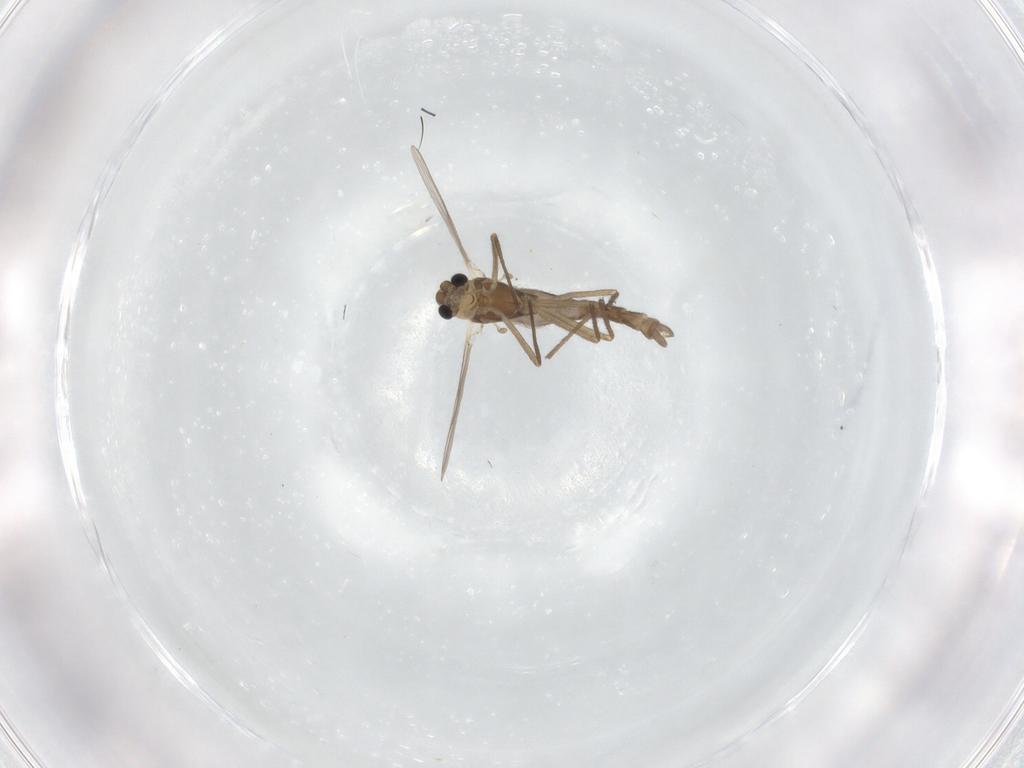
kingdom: Animalia
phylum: Arthropoda
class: Insecta
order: Diptera
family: Chironomidae
